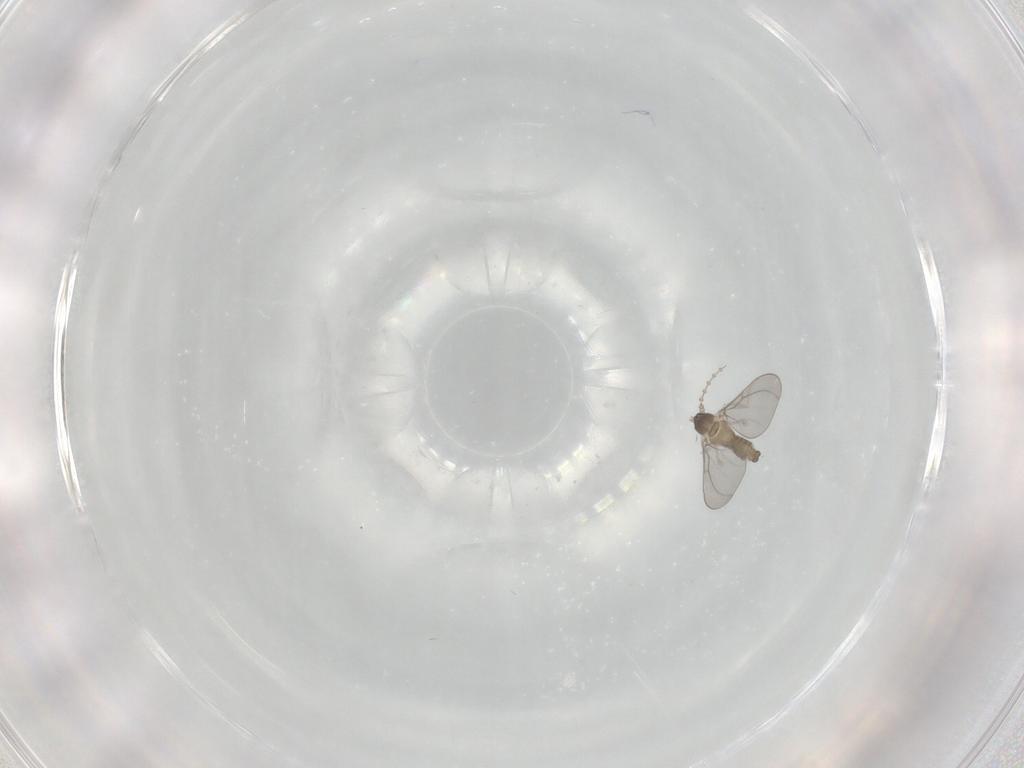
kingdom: Animalia
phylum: Arthropoda
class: Insecta
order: Diptera
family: Cecidomyiidae
